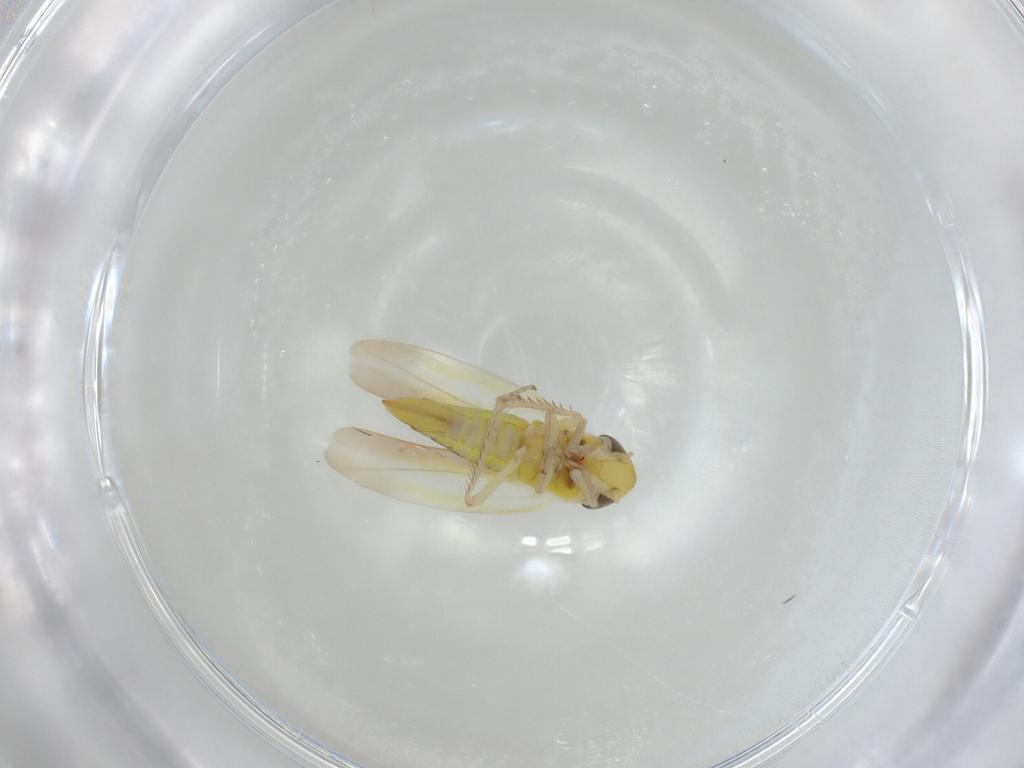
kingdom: Animalia
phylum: Arthropoda
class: Insecta
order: Hemiptera
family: Cicadellidae
